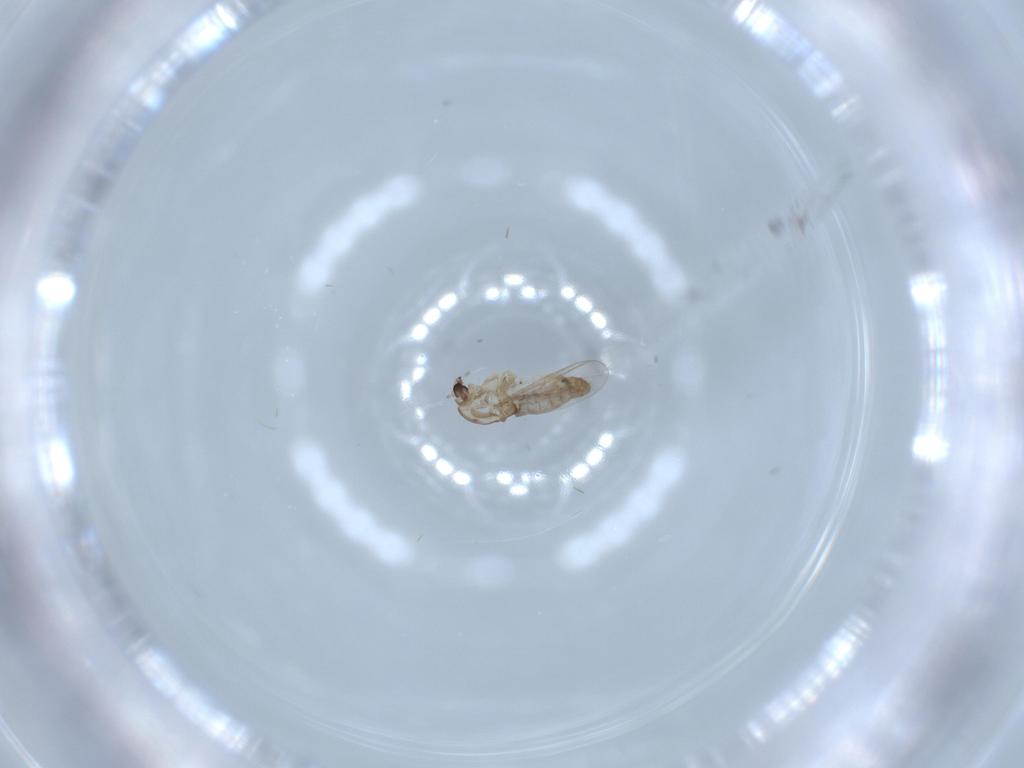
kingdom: Animalia
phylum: Arthropoda
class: Insecta
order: Diptera
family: Chironomidae
